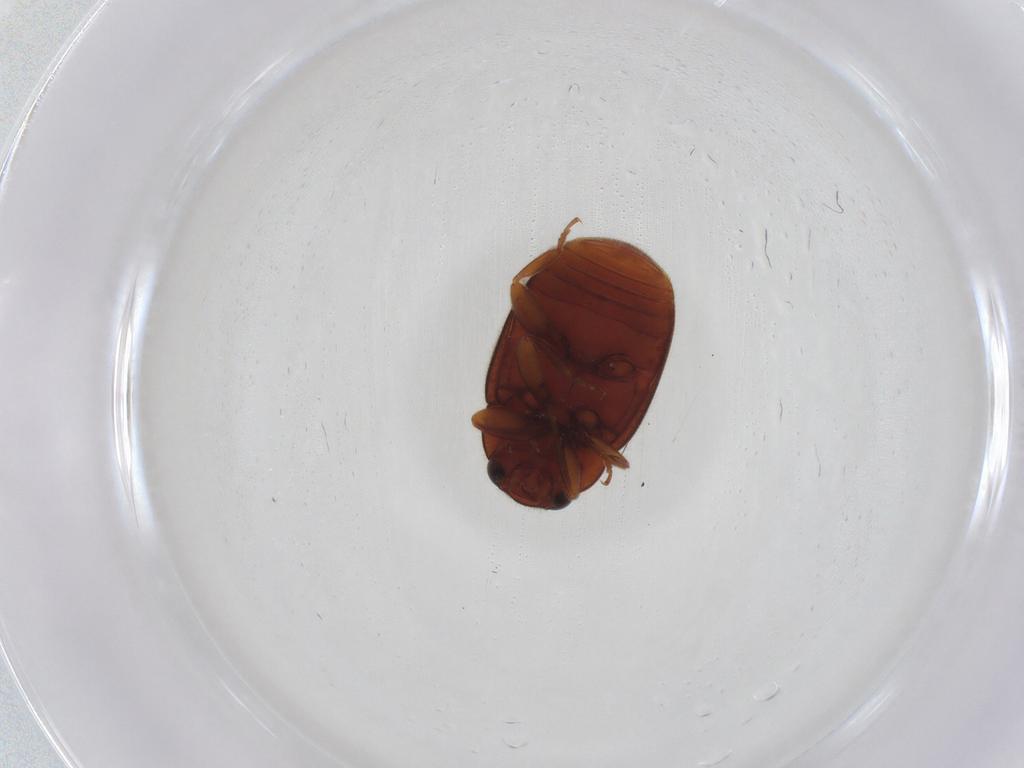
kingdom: Animalia
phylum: Arthropoda
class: Insecta
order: Coleoptera
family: Coccinellidae
